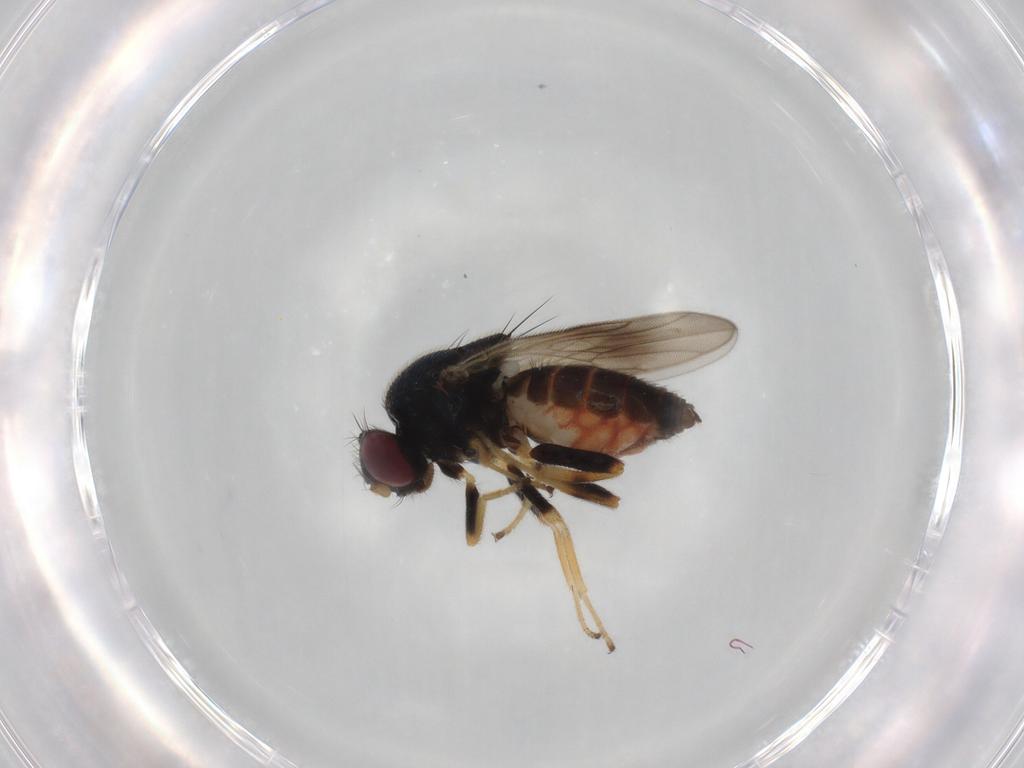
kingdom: Animalia
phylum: Arthropoda
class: Insecta
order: Diptera
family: Chloropidae
